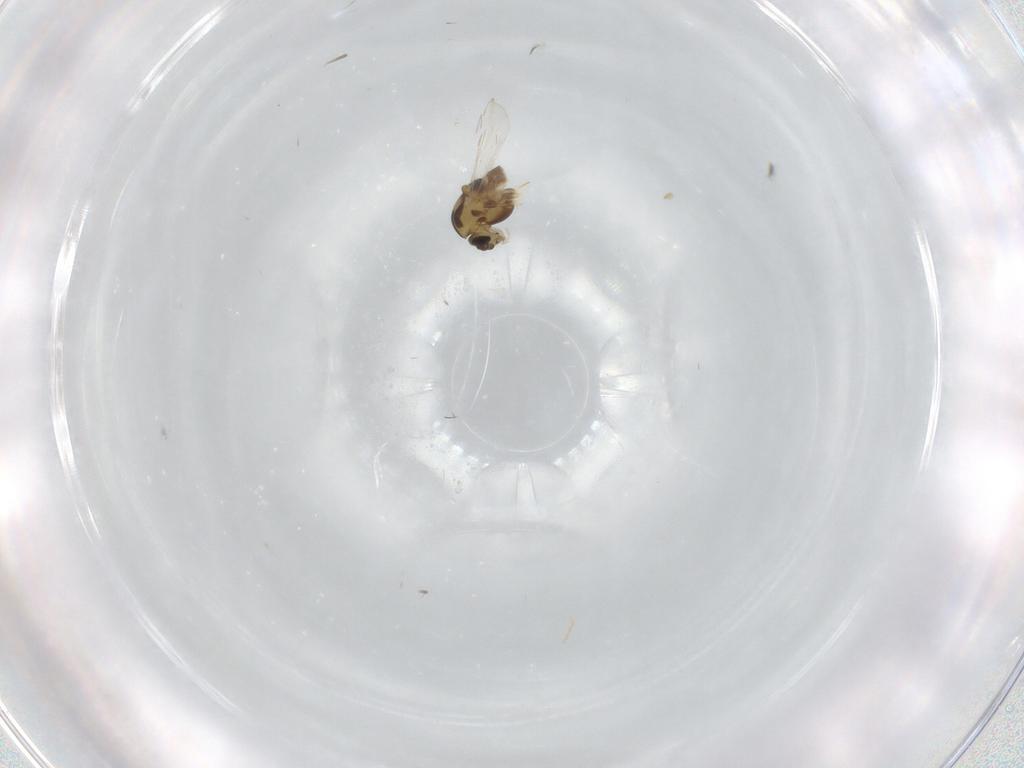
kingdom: Animalia
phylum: Arthropoda
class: Insecta
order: Diptera
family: Chironomidae
